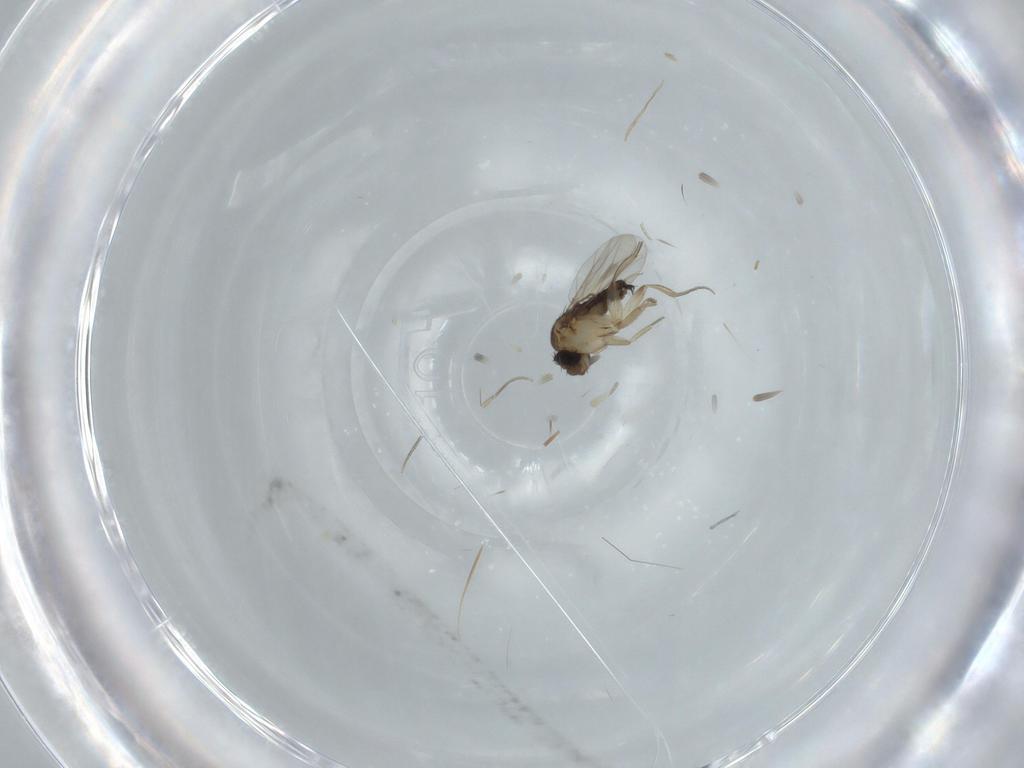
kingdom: Animalia
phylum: Arthropoda
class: Insecta
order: Diptera
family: Phoridae
